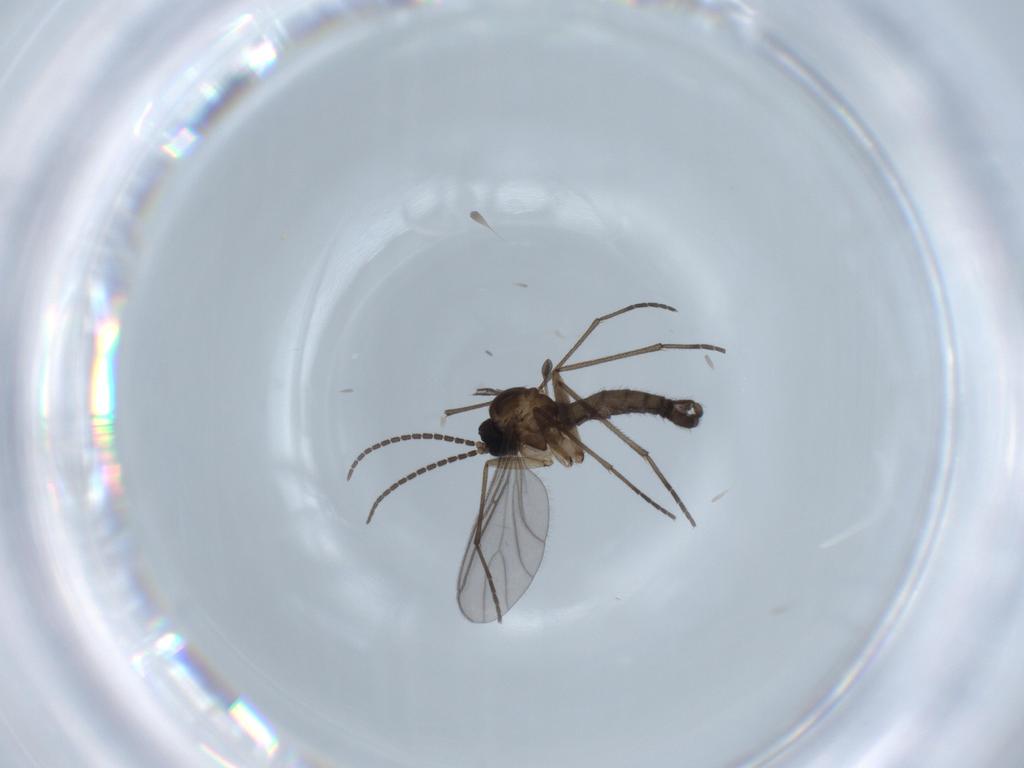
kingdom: Animalia
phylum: Arthropoda
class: Insecta
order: Diptera
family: Sciaridae
